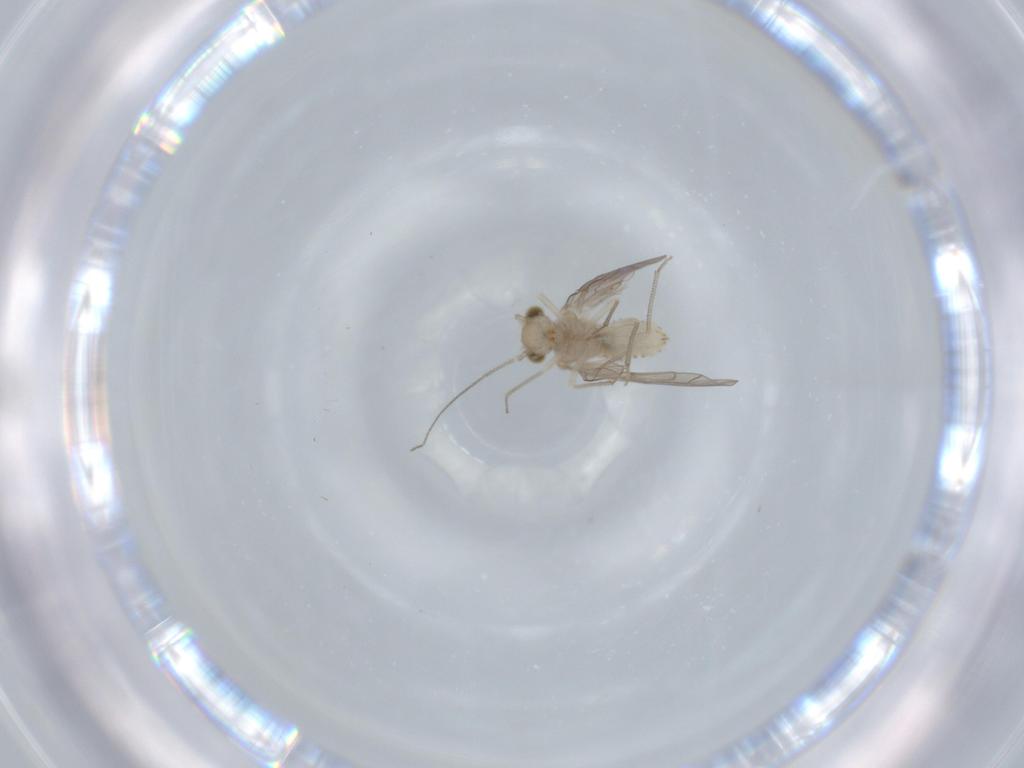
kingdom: Animalia
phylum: Arthropoda
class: Insecta
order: Psocodea
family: Lachesillidae
